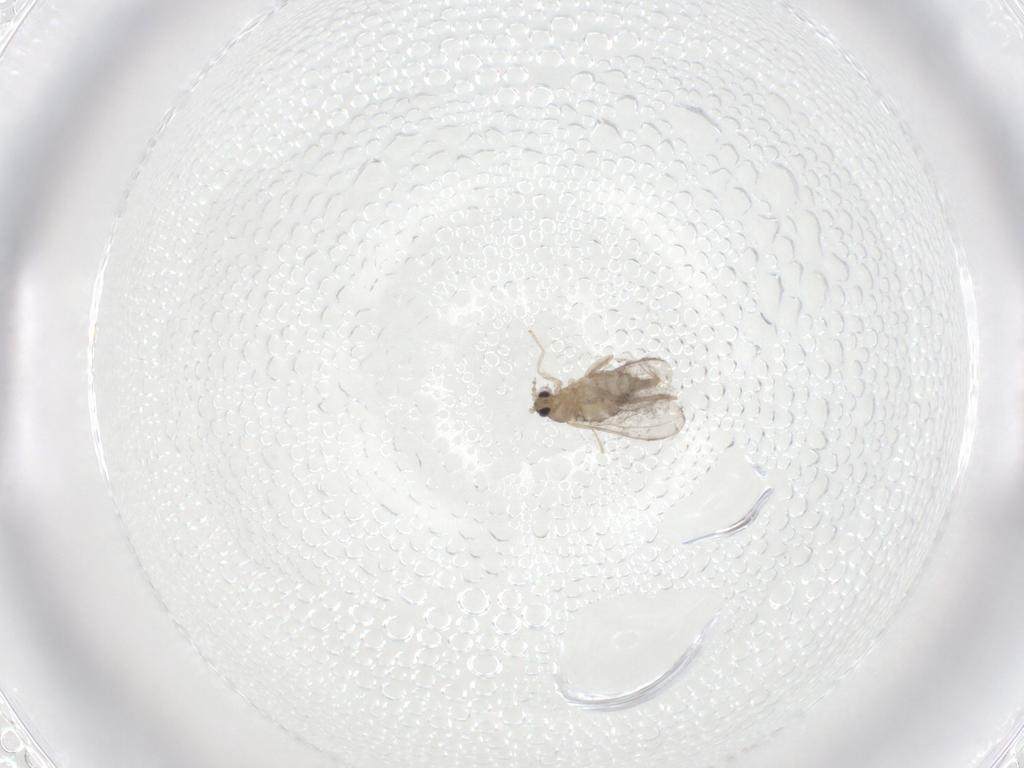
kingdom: Animalia
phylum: Arthropoda
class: Insecta
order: Diptera
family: Cecidomyiidae
